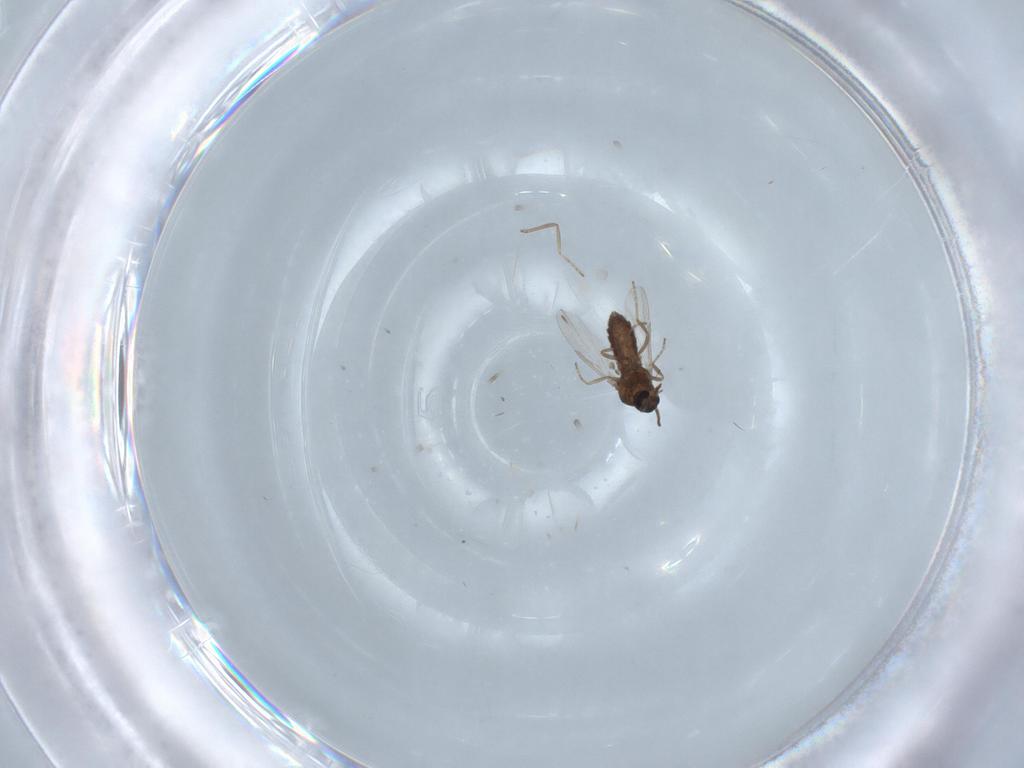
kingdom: Animalia
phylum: Arthropoda
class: Insecta
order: Diptera
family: Ceratopogonidae
